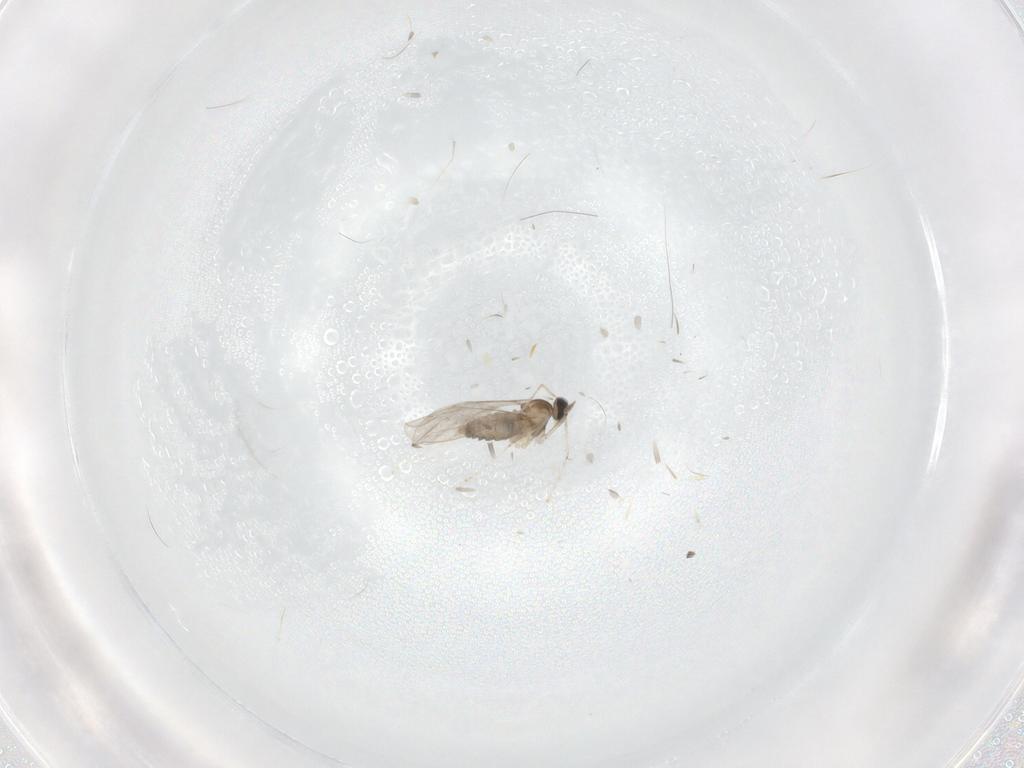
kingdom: Animalia
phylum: Arthropoda
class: Insecta
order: Diptera
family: Cecidomyiidae
